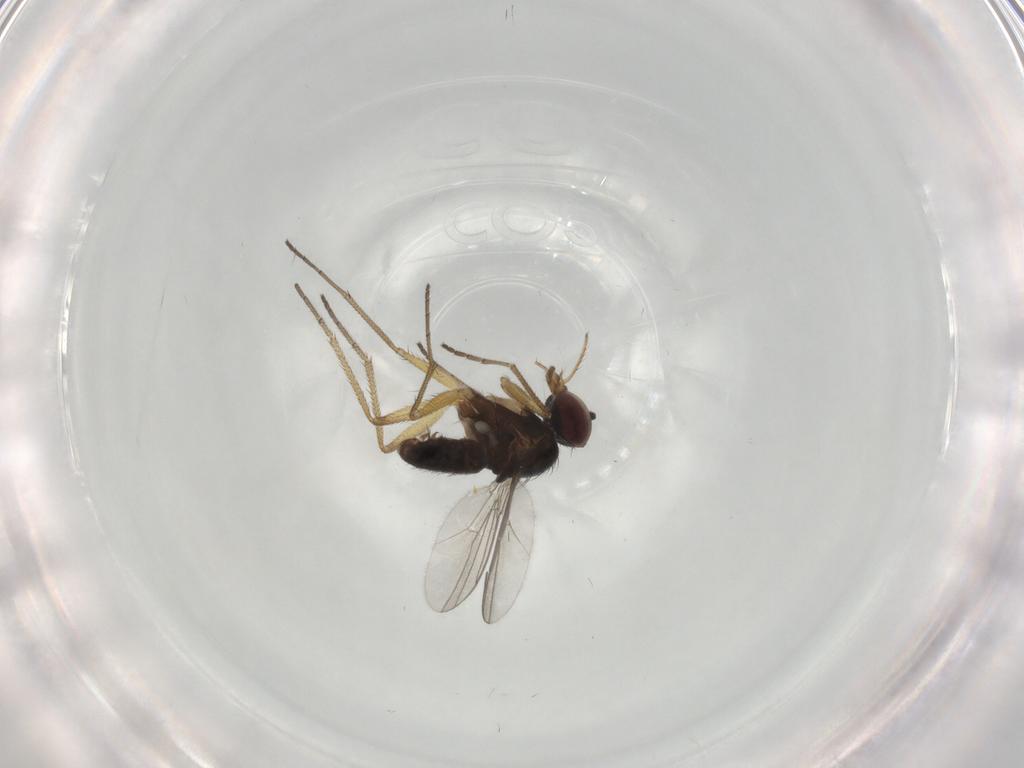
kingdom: Animalia
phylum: Arthropoda
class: Insecta
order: Diptera
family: Dolichopodidae
